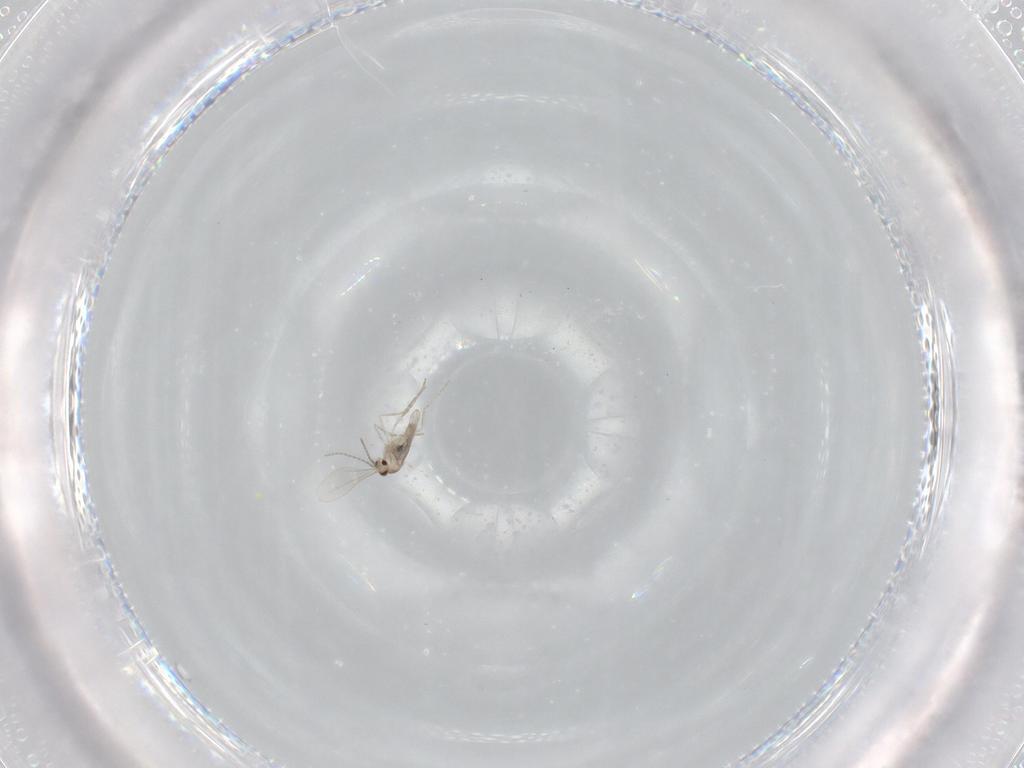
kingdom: Animalia
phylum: Arthropoda
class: Insecta
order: Diptera
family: Cecidomyiidae
